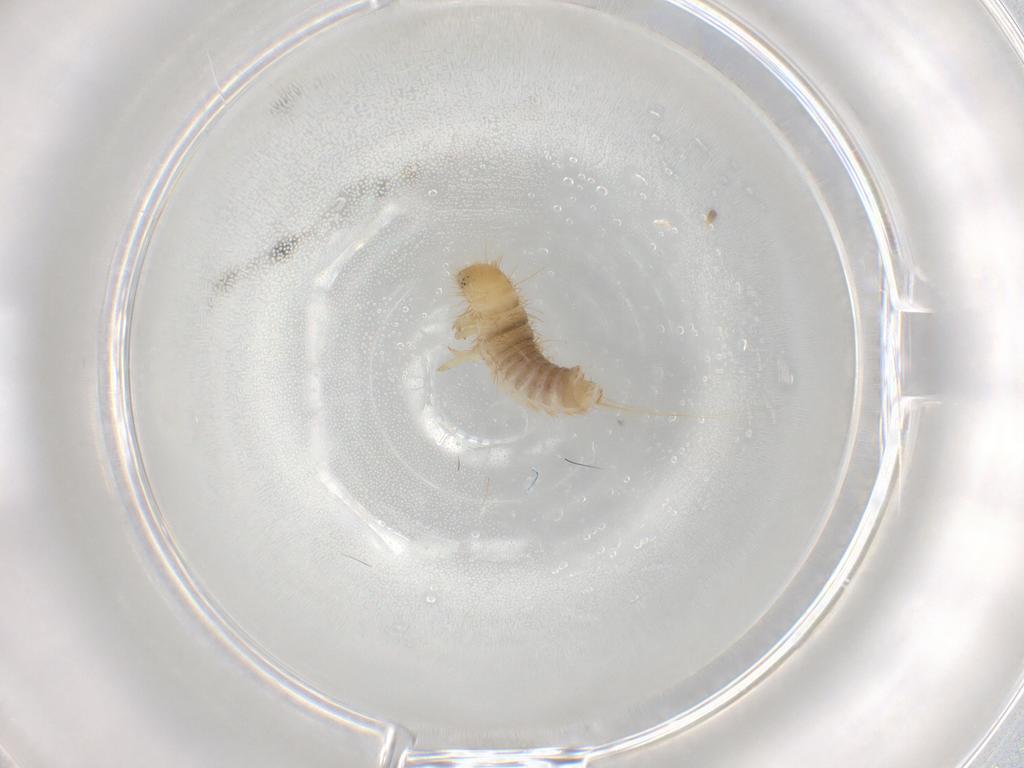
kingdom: Animalia
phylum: Arthropoda
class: Insecta
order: Coleoptera
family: Dermestidae
